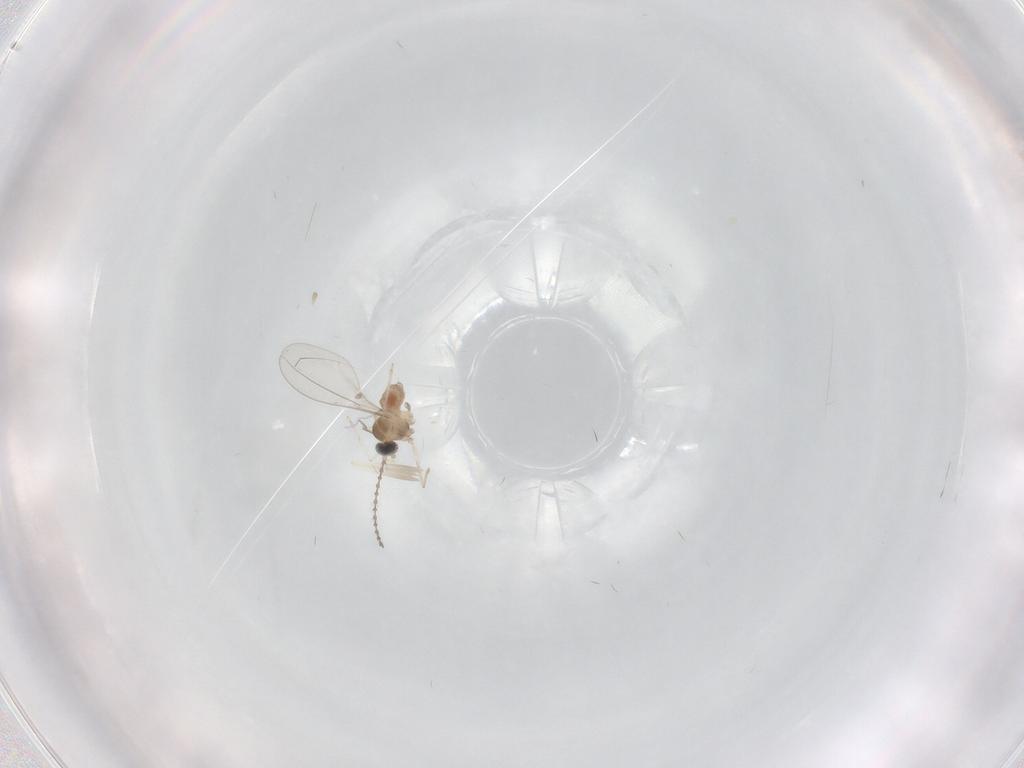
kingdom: Animalia
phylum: Arthropoda
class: Insecta
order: Diptera
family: Cecidomyiidae
